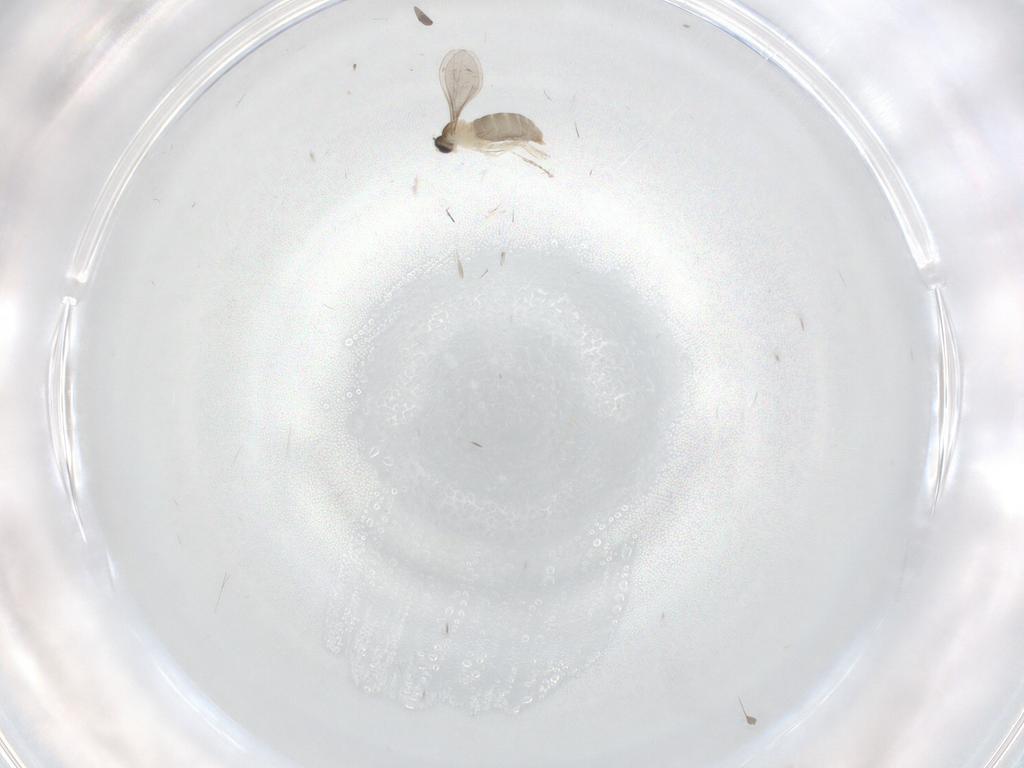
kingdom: Animalia
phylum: Arthropoda
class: Insecta
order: Diptera
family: Cecidomyiidae
